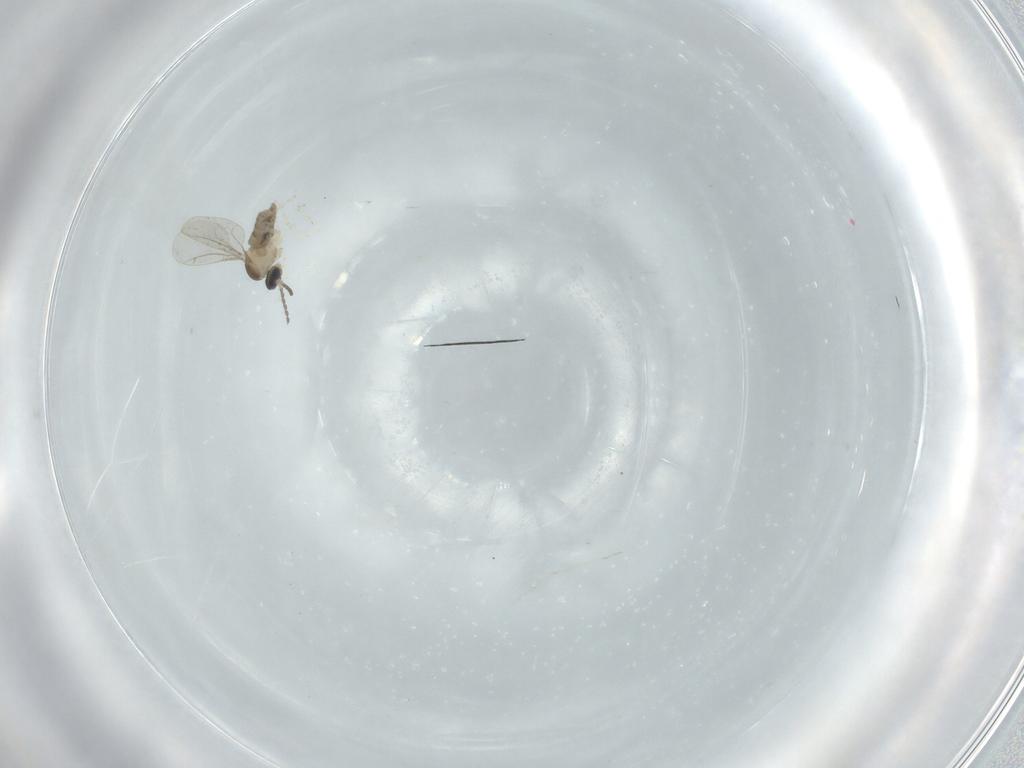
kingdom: Animalia
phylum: Arthropoda
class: Insecta
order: Diptera
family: Cecidomyiidae
